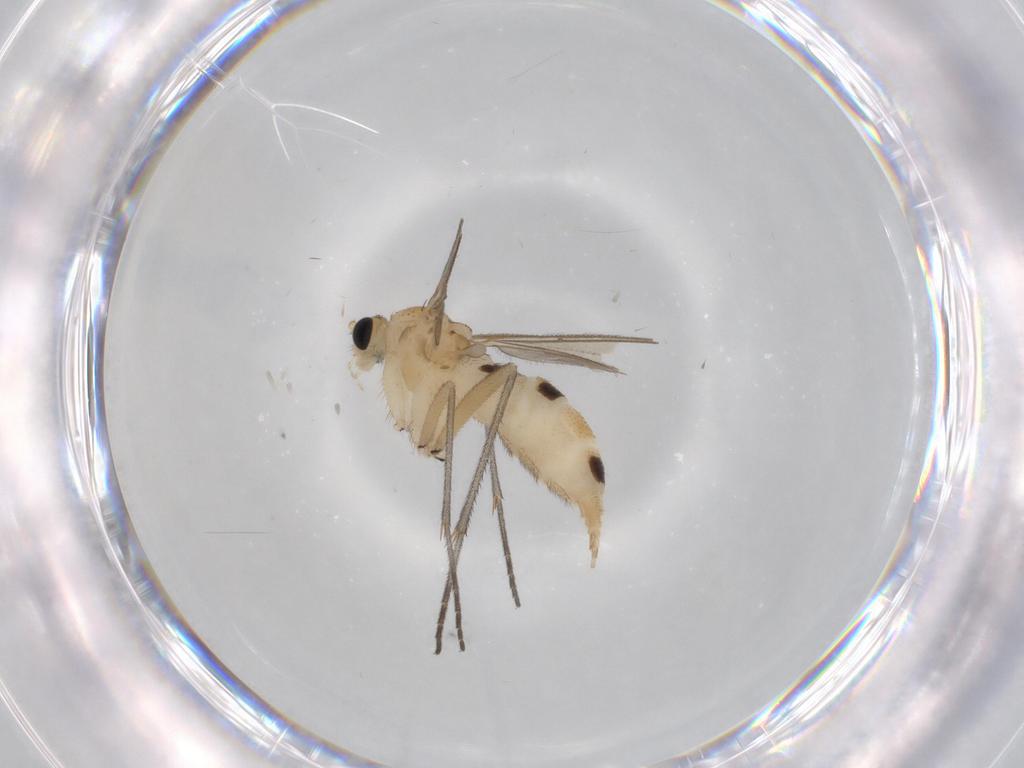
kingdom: Animalia
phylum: Arthropoda
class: Insecta
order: Diptera
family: Sciaridae
